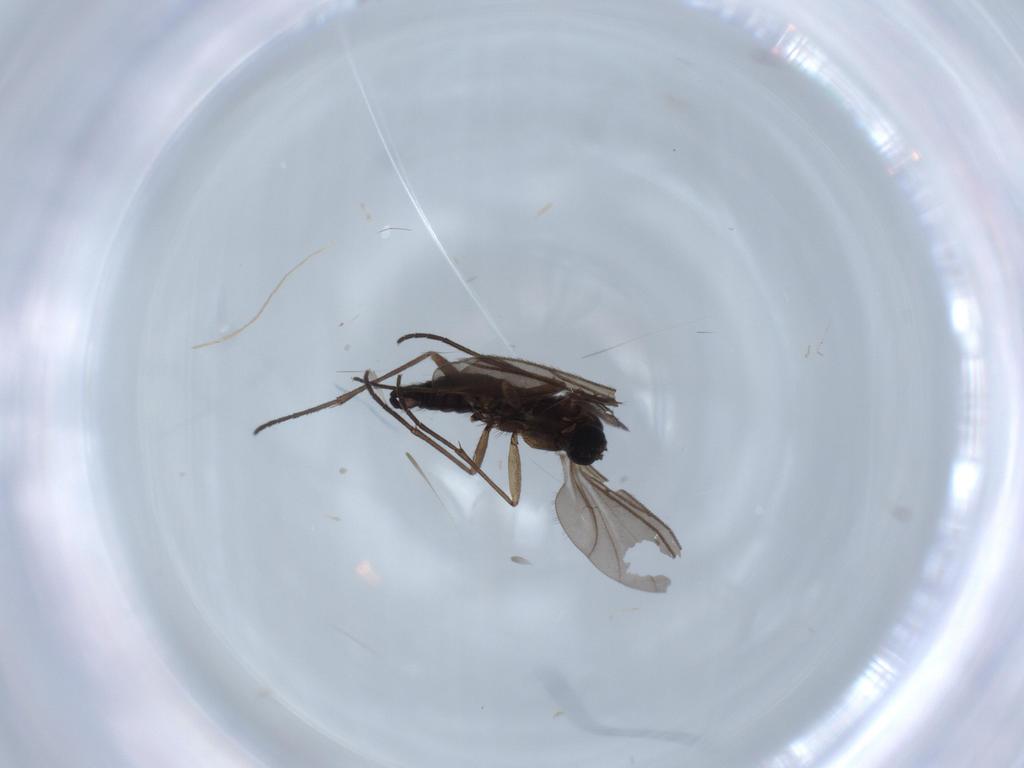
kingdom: Animalia
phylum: Arthropoda
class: Insecta
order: Diptera
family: Sciaridae
